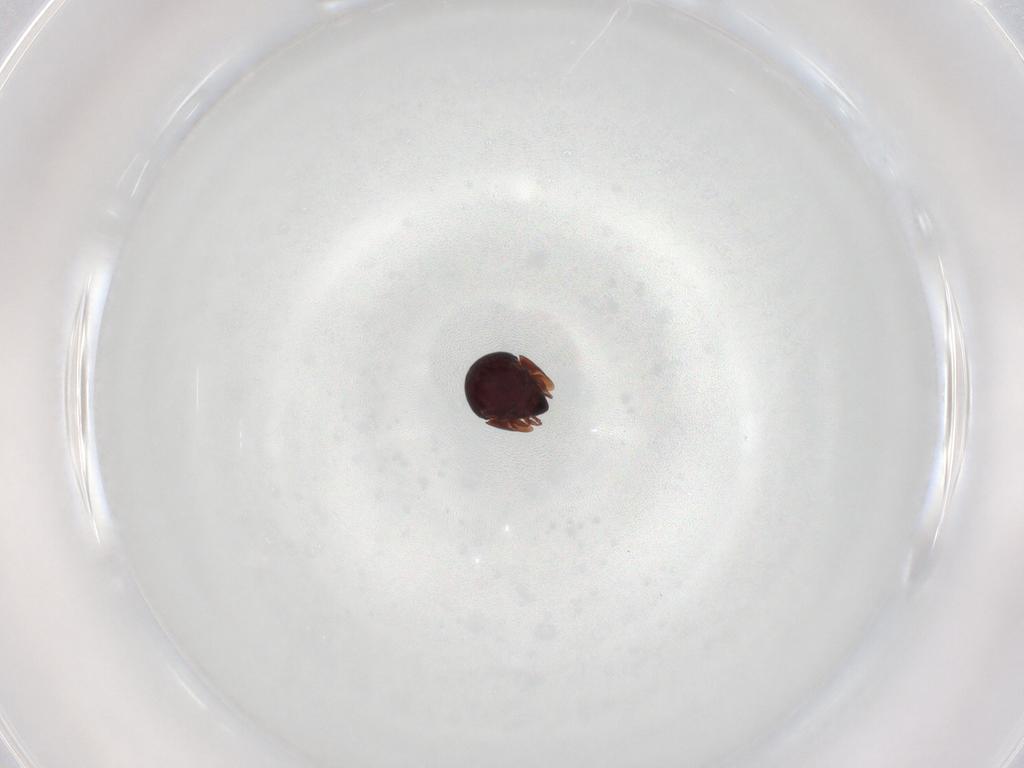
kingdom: Animalia
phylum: Arthropoda
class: Arachnida
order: Sarcoptiformes
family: Galumnidae
